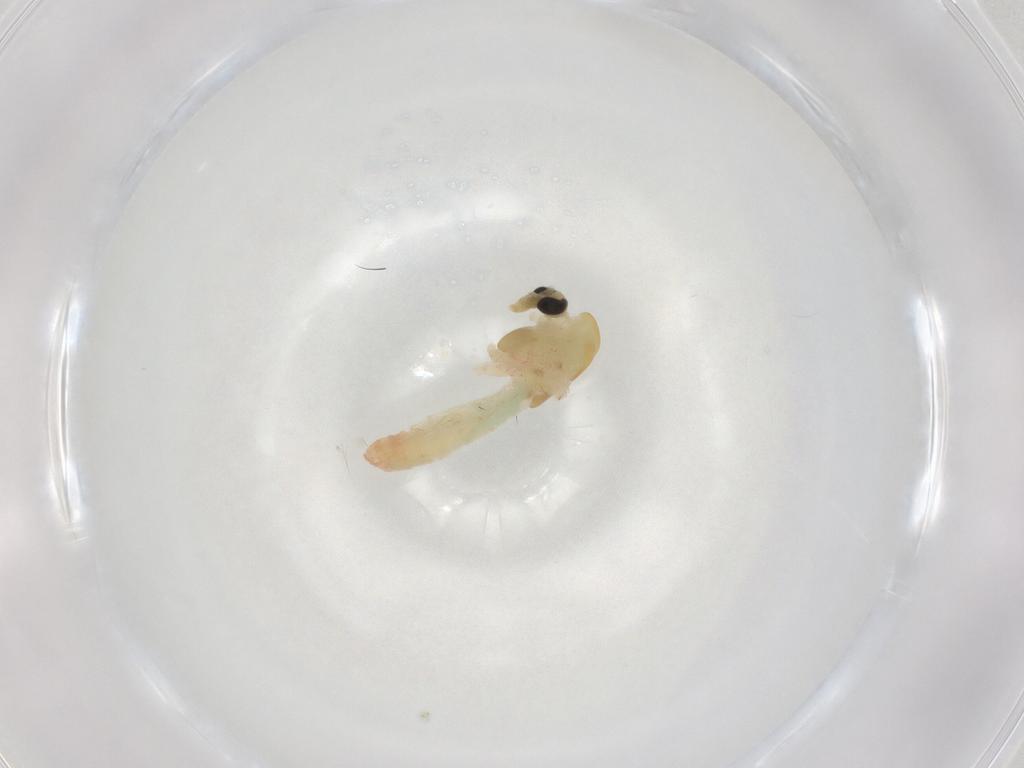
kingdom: Animalia
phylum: Arthropoda
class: Insecta
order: Diptera
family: Chironomidae
